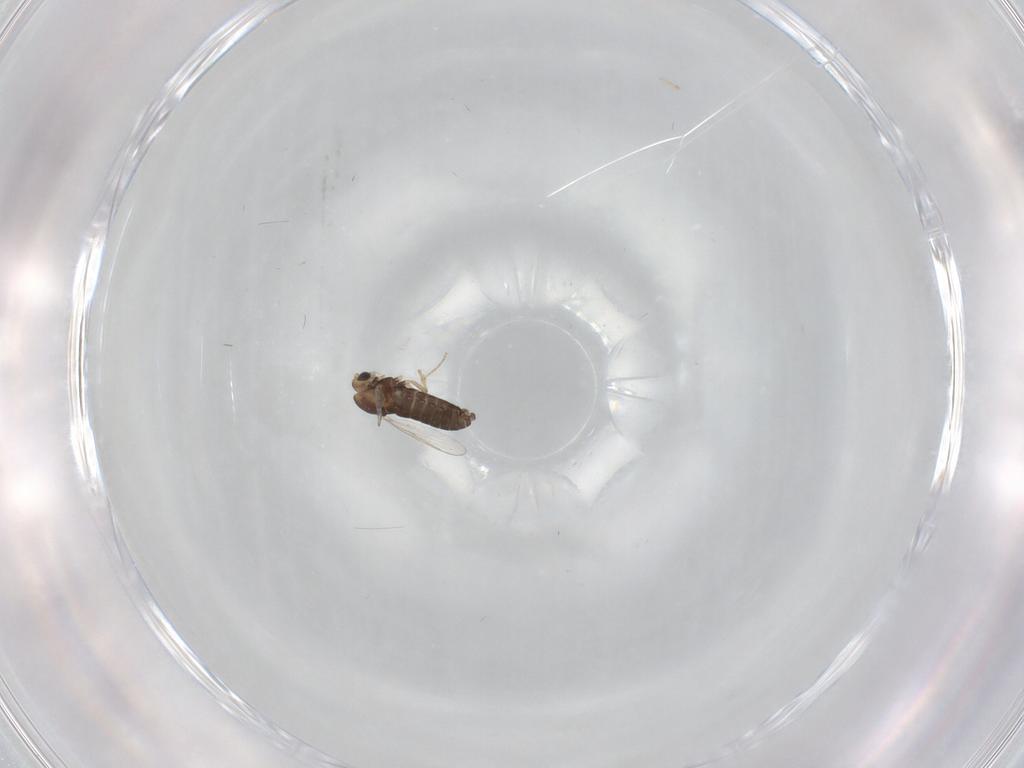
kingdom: Animalia
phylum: Arthropoda
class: Insecta
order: Diptera
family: Chironomidae
